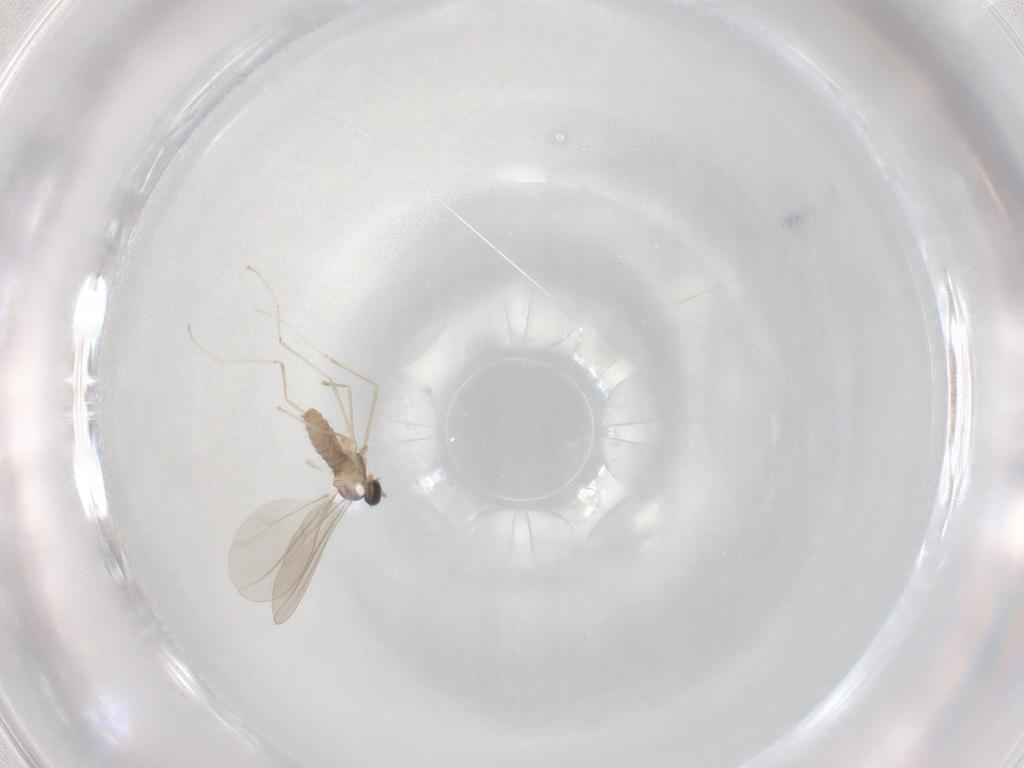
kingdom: Animalia
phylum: Arthropoda
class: Insecta
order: Diptera
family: Cecidomyiidae
